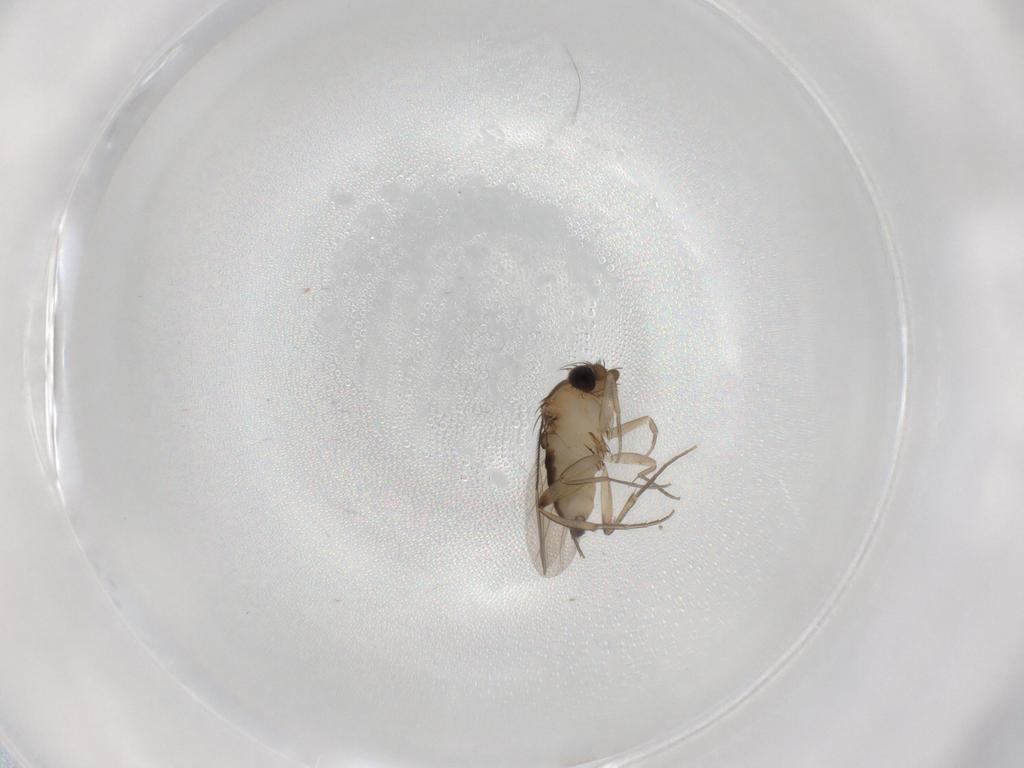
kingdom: Animalia
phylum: Arthropoda
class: Insecta
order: Diptera
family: Phoridae
